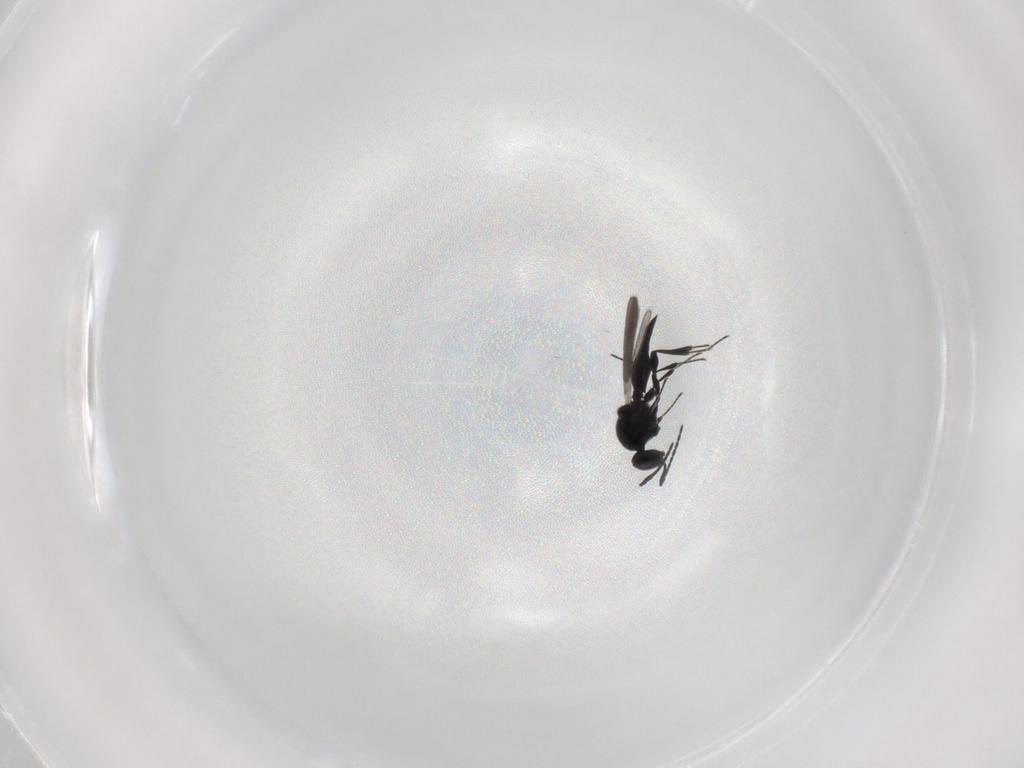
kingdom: Animalia
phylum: Arthropoda
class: Insecta
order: Diptera
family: Mythicomyiidae
